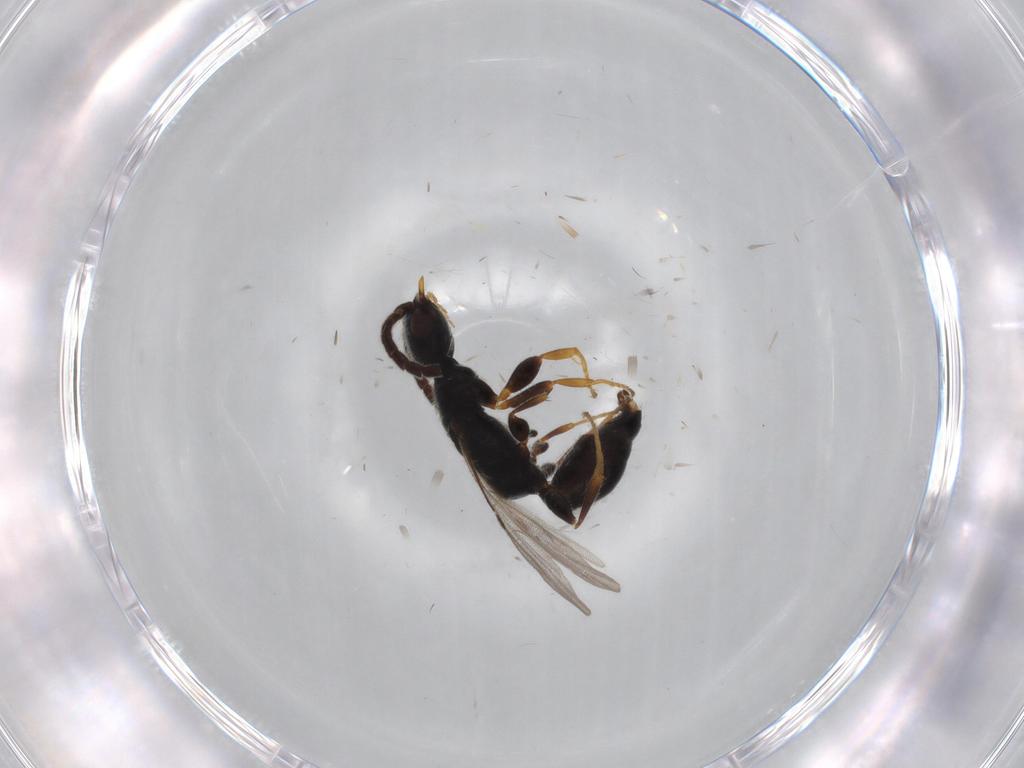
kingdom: Animalia
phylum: Arthropoda
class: Insecta
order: Hymenoptera
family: Bethylidae
